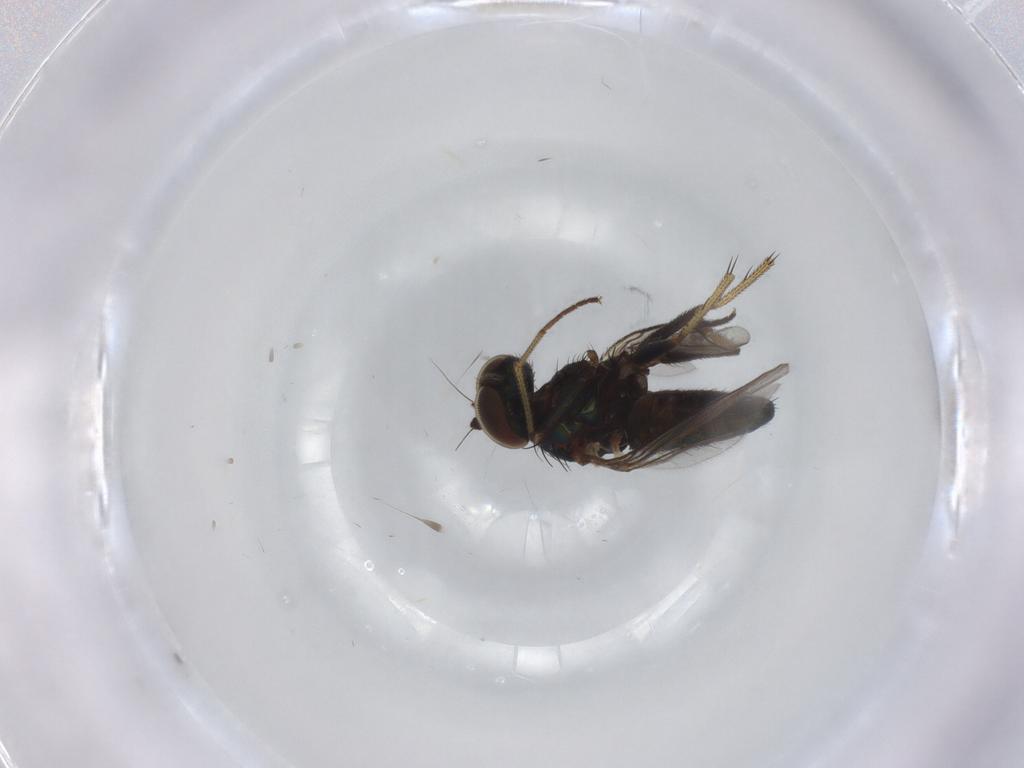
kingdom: Animalia
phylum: Arthropoda
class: Insecta
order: Diptera
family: Dolichopodidae
